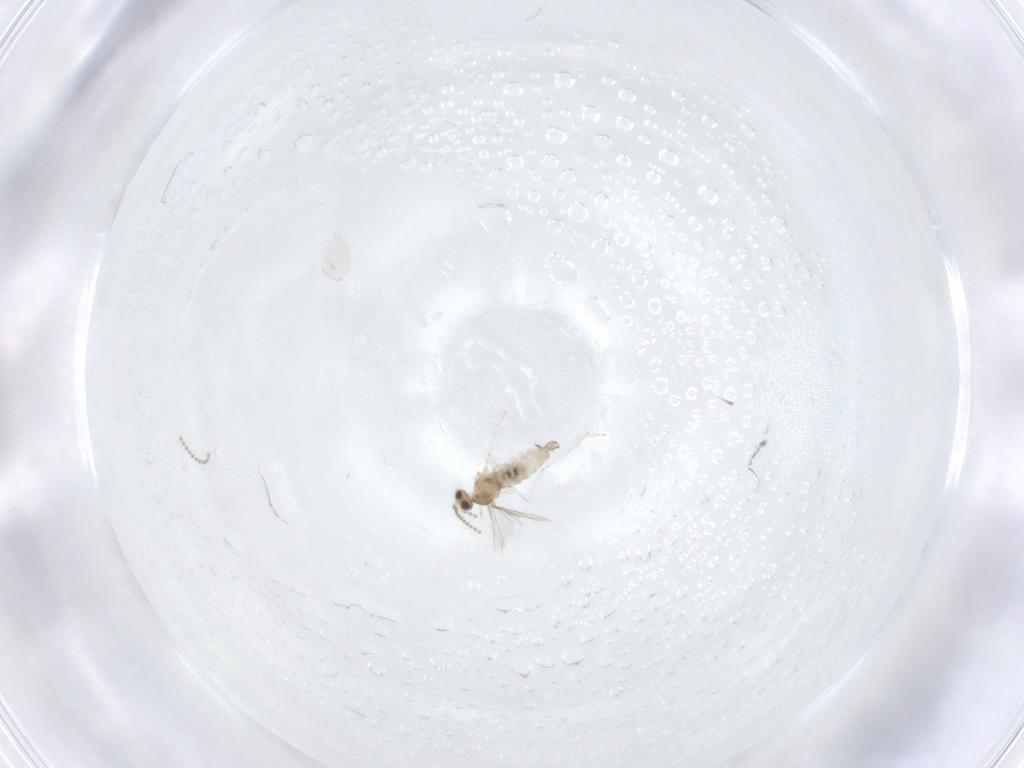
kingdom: Animalia
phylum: Arthropoda
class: Insecta
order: Diptera
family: Cecidomyiidae
